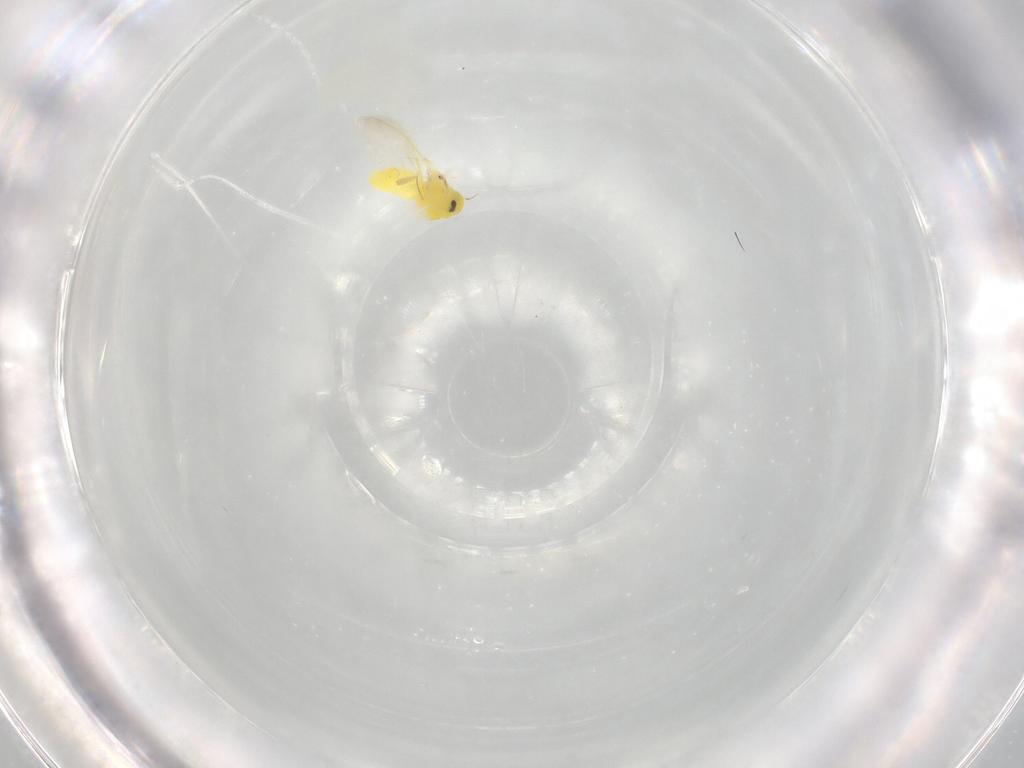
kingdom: Animalia
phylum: Arthropoda
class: Insecta
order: Hemiptera
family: Aleyrodidae
